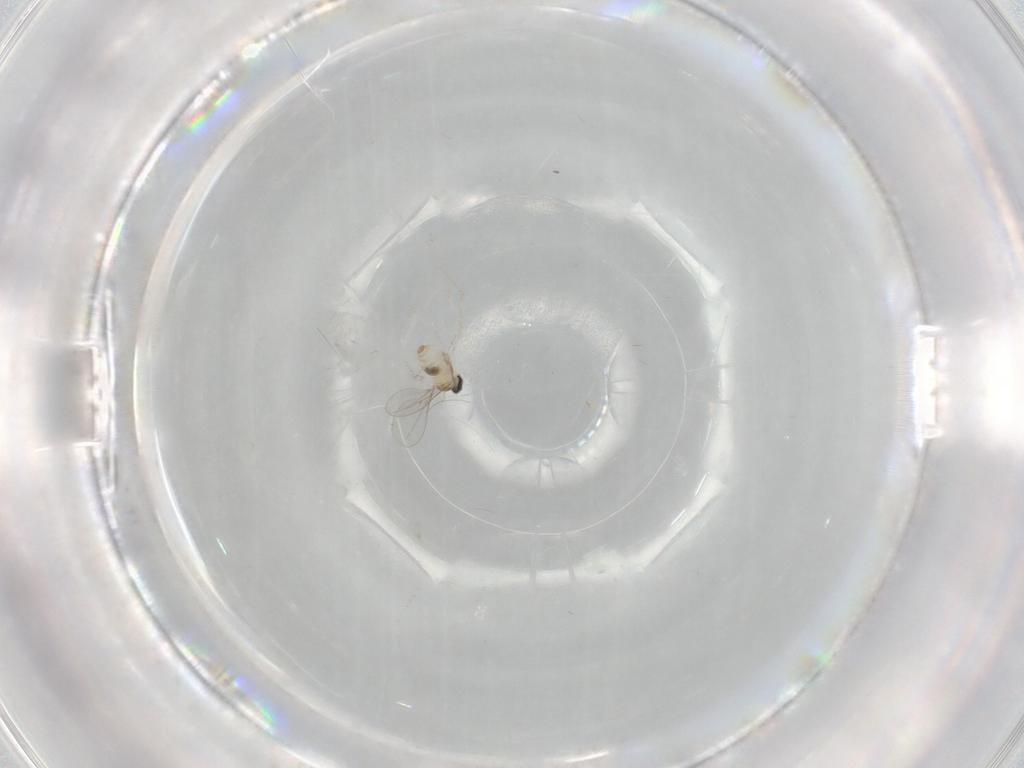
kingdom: Animalia
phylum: Arthropoda
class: Insecta
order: Diptera
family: Cecidomyiidae
